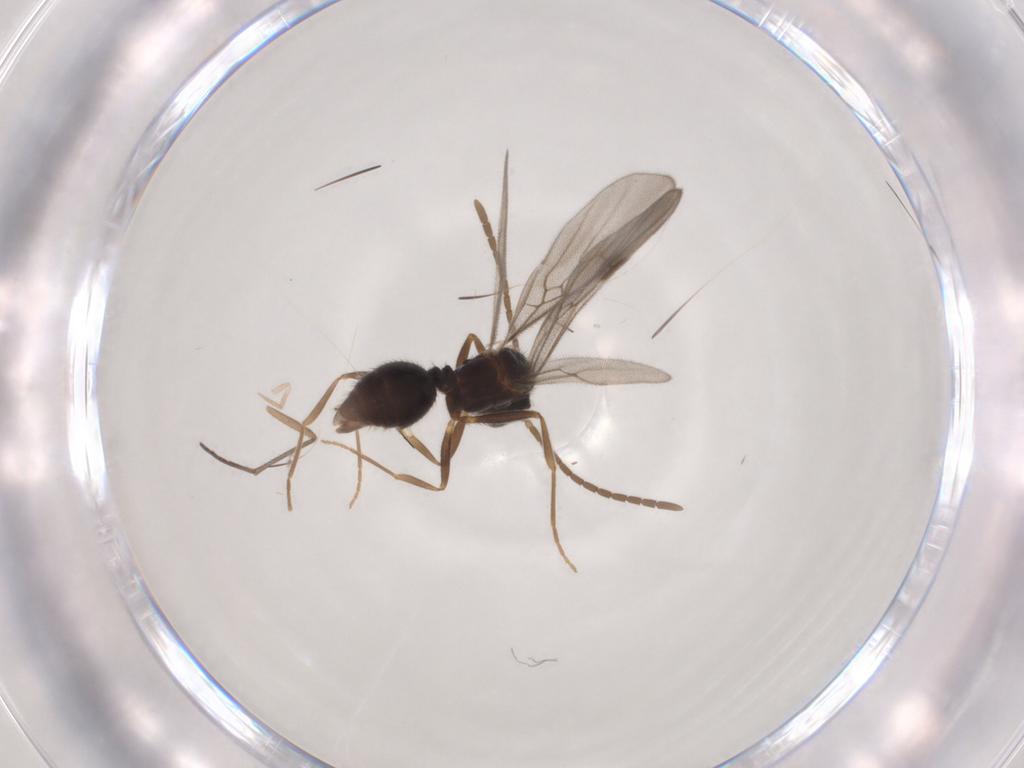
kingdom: Animalia
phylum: Arthropoda
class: Insecta
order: Diptera
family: Sciaridae
